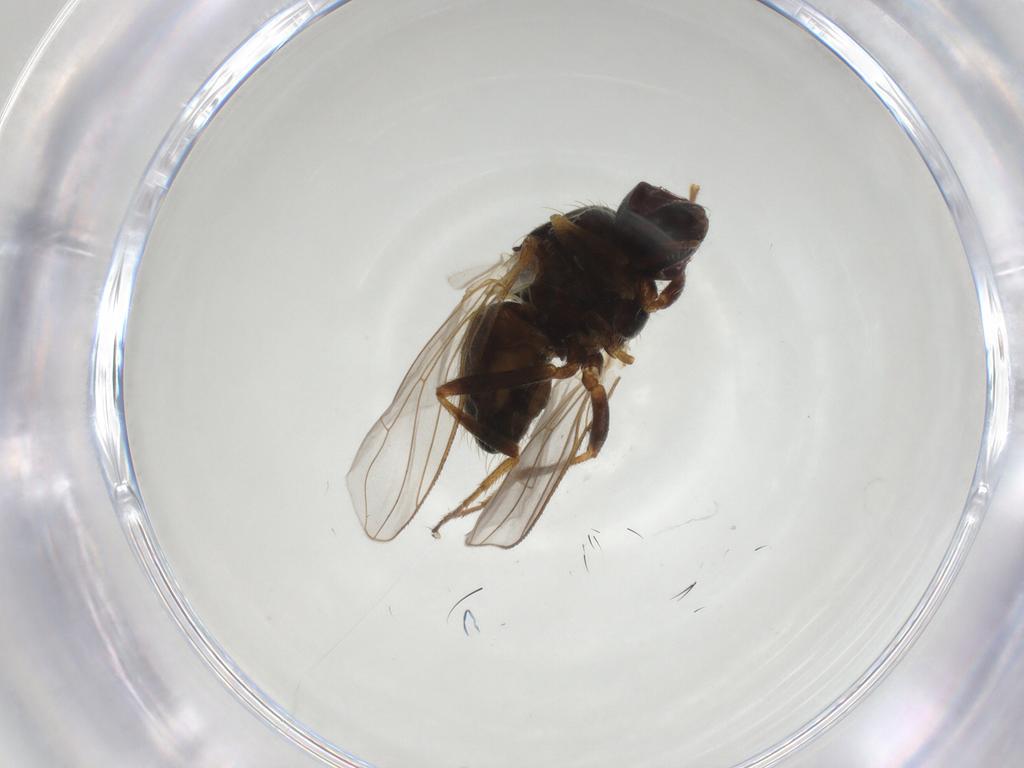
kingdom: Animalia
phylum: Arthropoda
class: Insecta
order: Diptera
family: Muscidae
